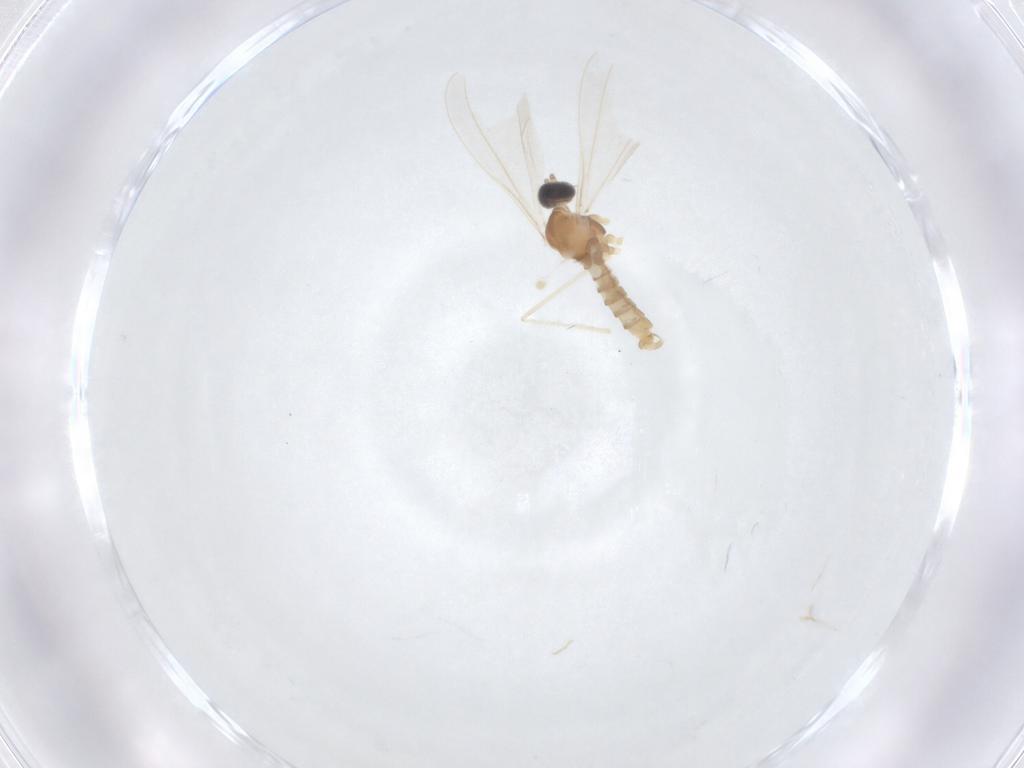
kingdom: Animalia
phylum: Arthropoda
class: Insecta
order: Diptera
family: Cecidomyiidae
